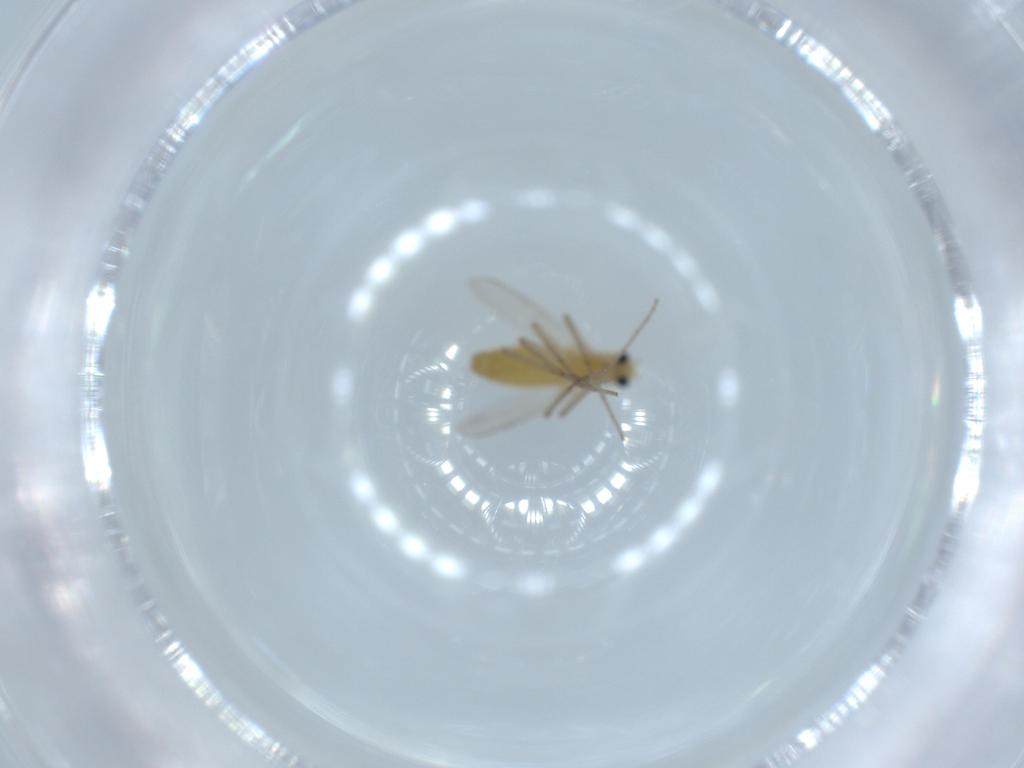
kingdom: Animalia
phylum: Arthropoda
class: Insecta
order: Diptera
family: Chironomidae
